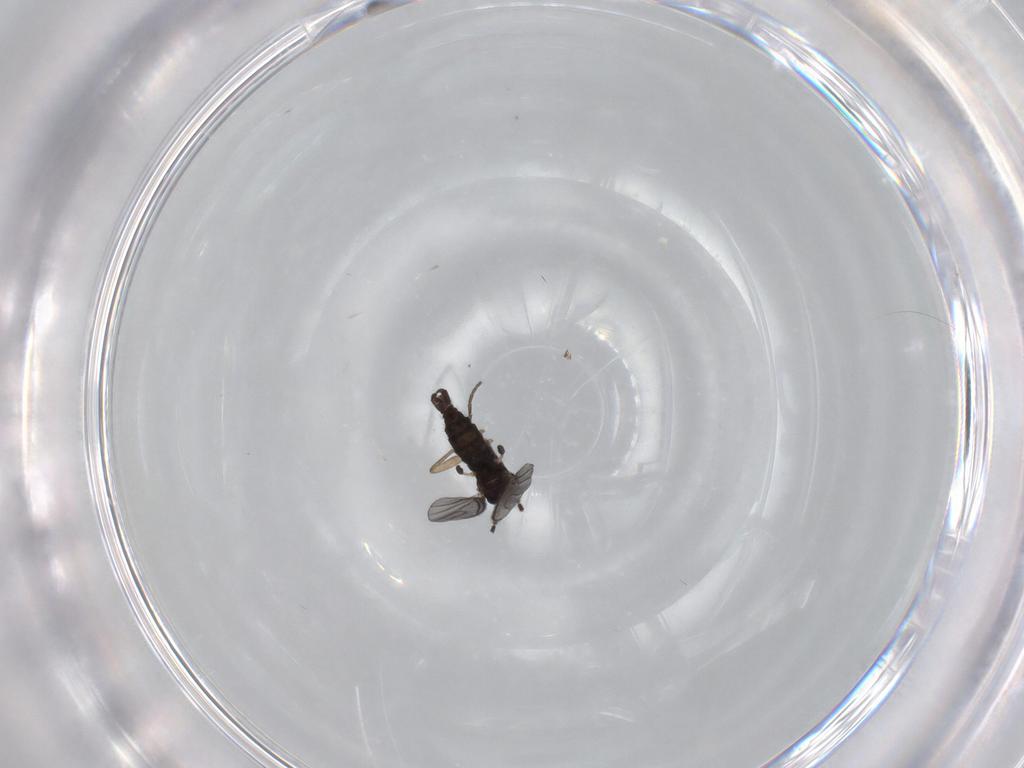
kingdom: Animalia
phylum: Arthropoda
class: Insecta
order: Diptera
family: Sciaridae
